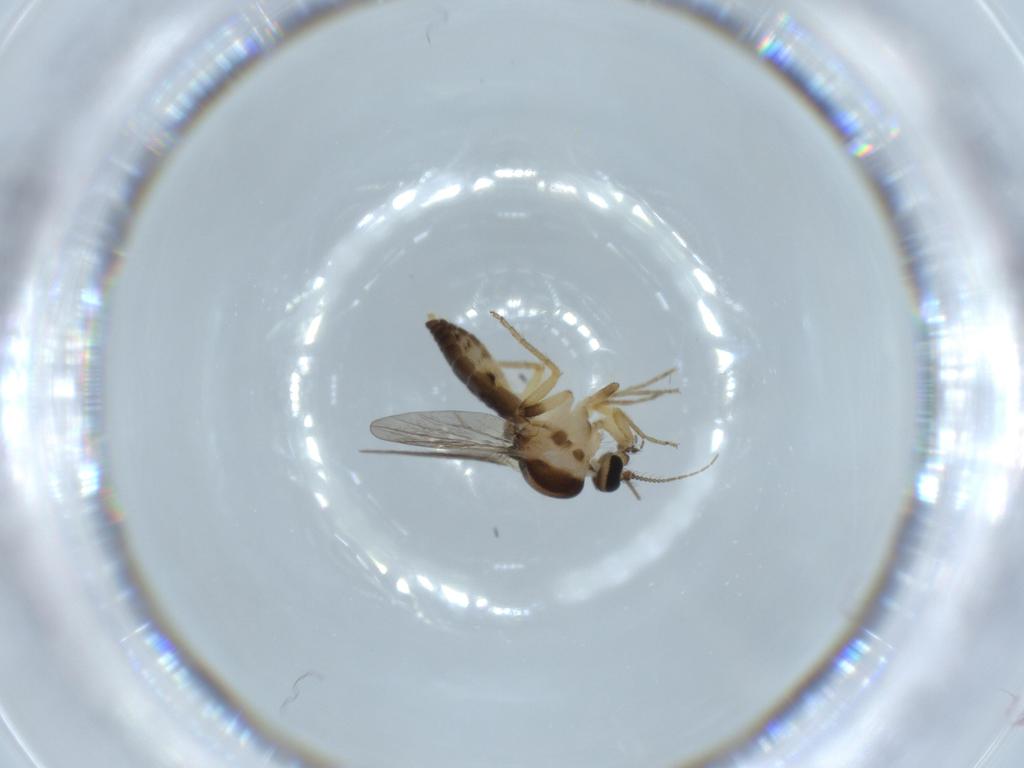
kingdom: Animalia
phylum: Arthropoda
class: Insecta
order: Diptera
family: Ceratopogonidae
